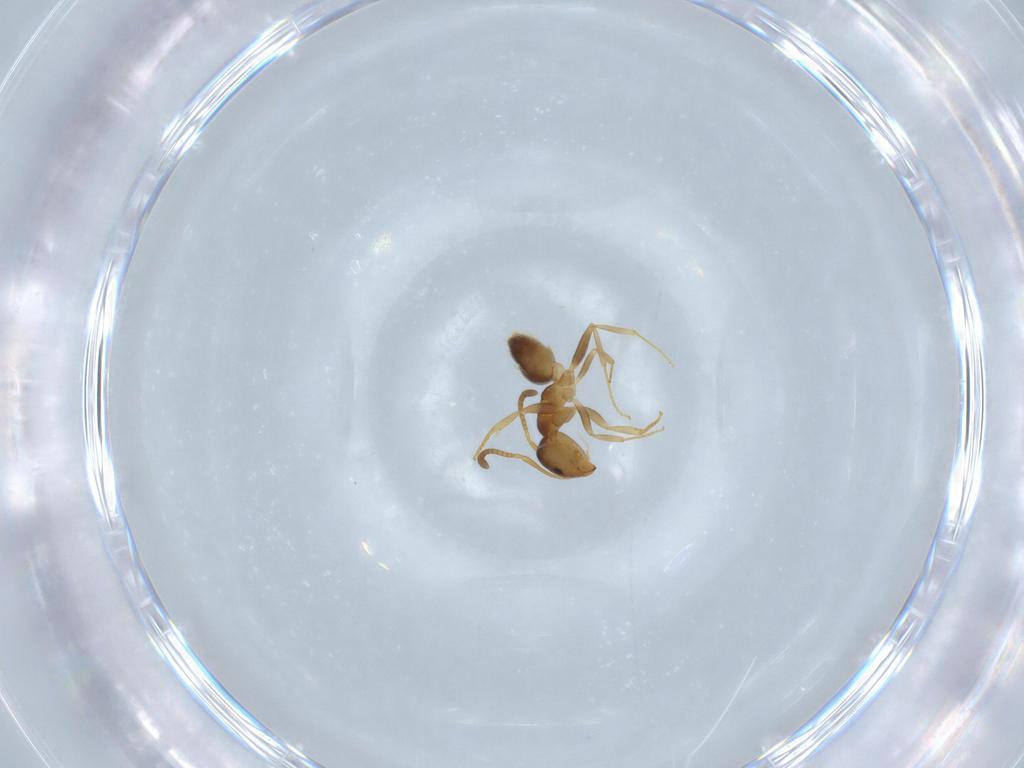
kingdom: Animalia
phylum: Arthropoda
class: Insecta
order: Hymenoptera
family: Formicidae
